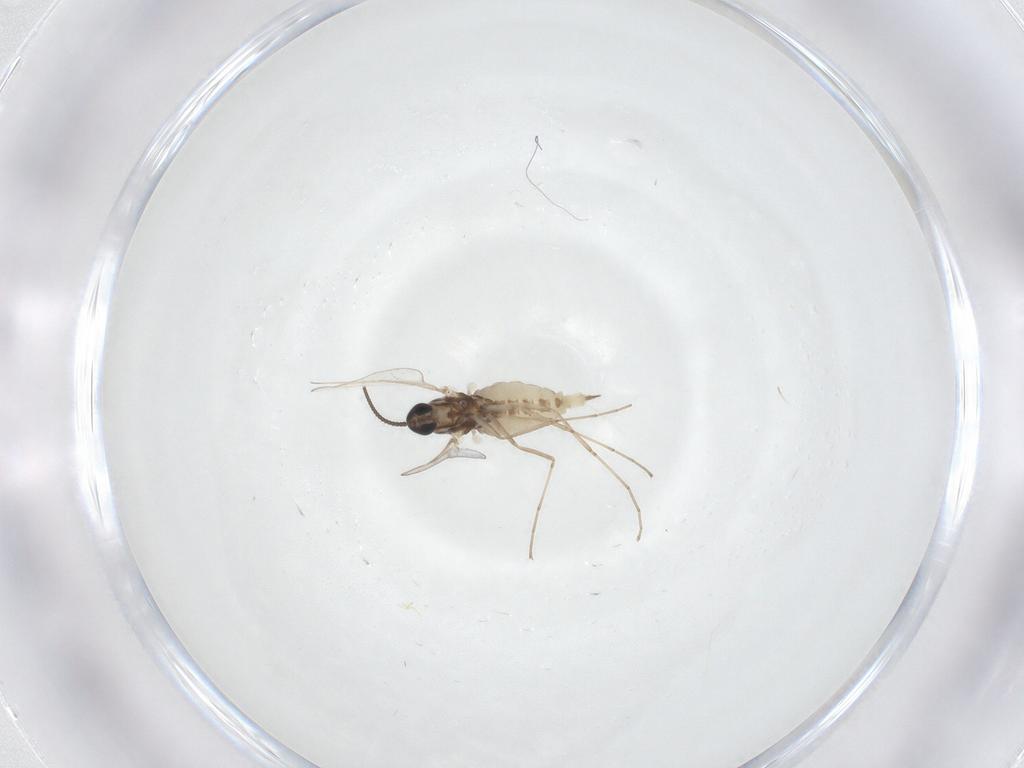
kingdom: Animalia
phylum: Arthropoda
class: Insecta
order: Diptera
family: Cecidomyiidae
